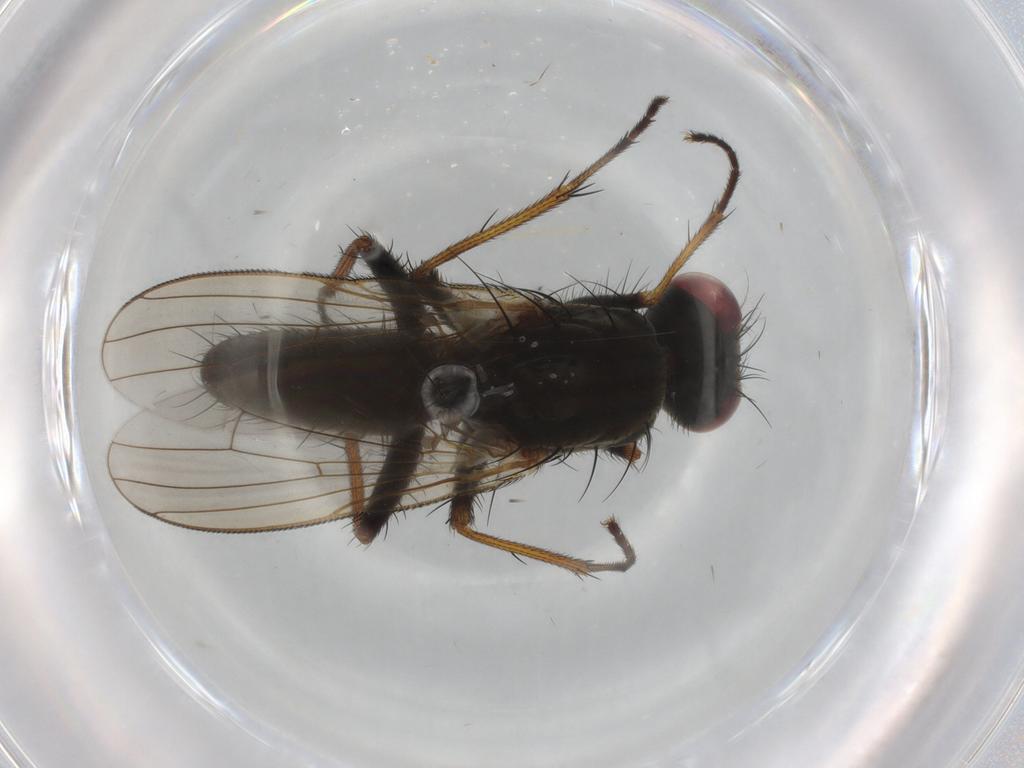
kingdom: Animalia
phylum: Arthropoda
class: Insecta
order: Diptera
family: Muscidae
